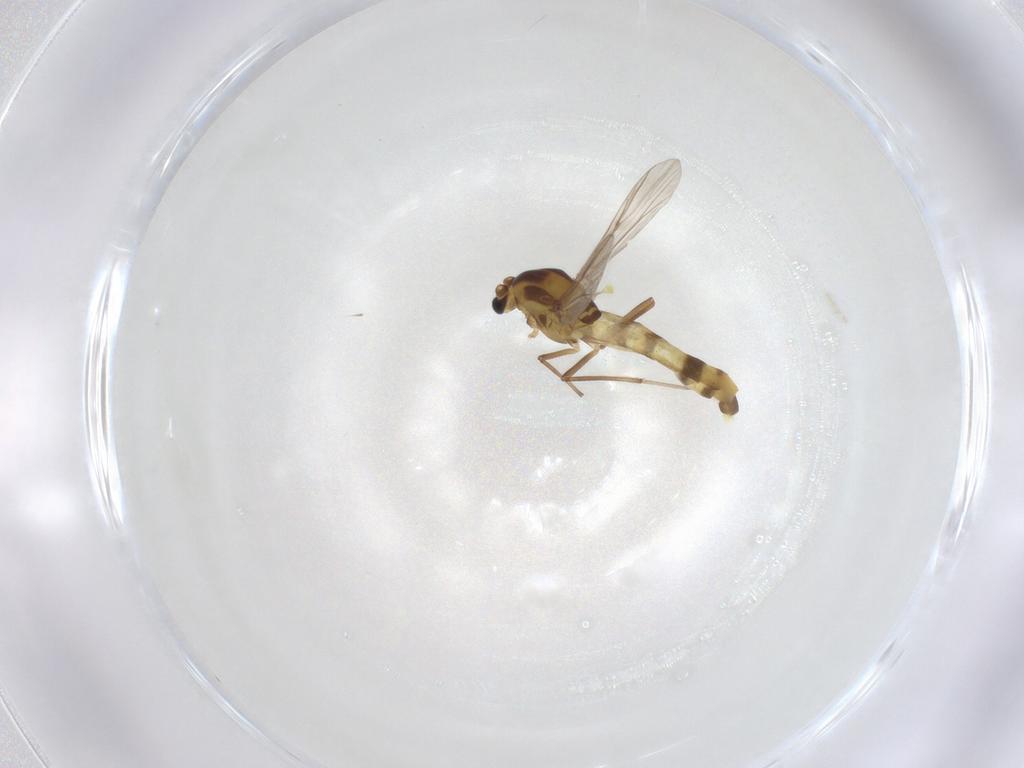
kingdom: Animalia
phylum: Arthropoda
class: Insecta
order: Diptera
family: Chironomidae
